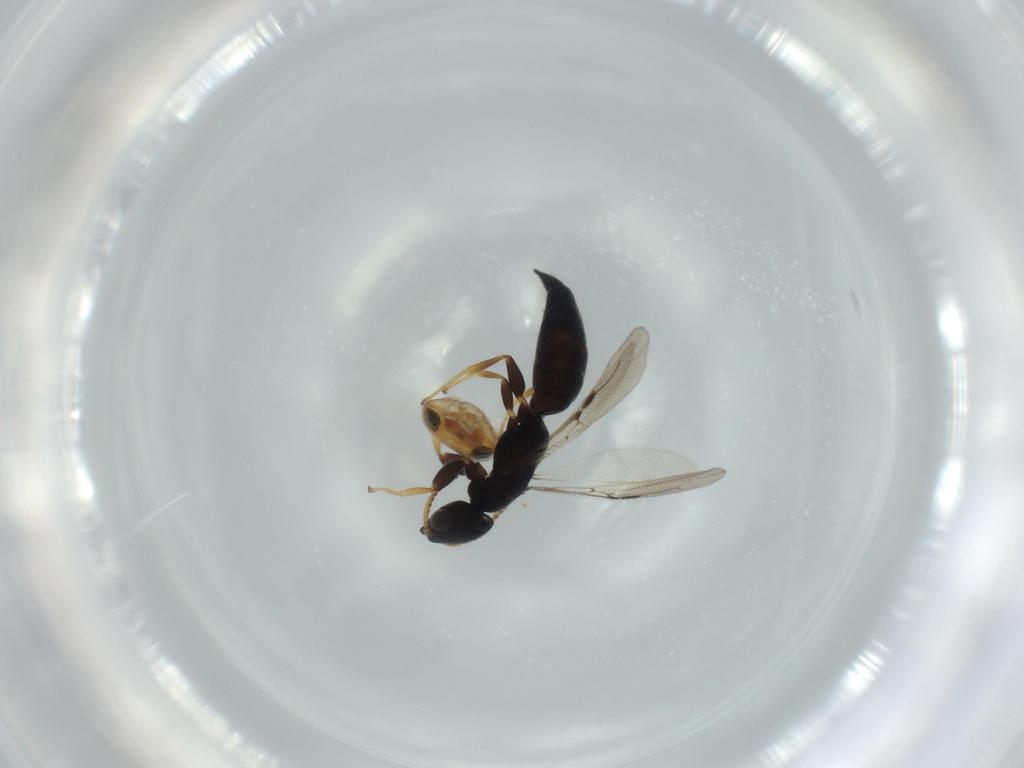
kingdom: Animalia
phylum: Arthropoda
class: Insecta
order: Hymenoptera
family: Bethylidae
